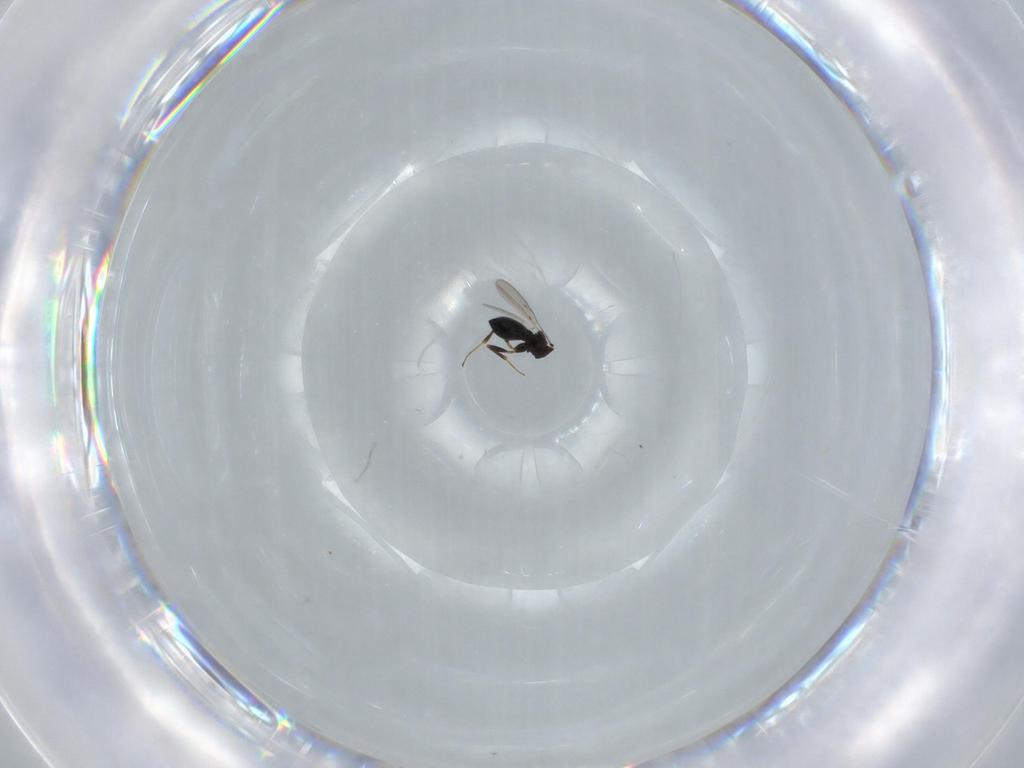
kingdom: Animalia
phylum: Arthropoda
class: Insecta
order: Hymenoptera
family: Scelionidae
